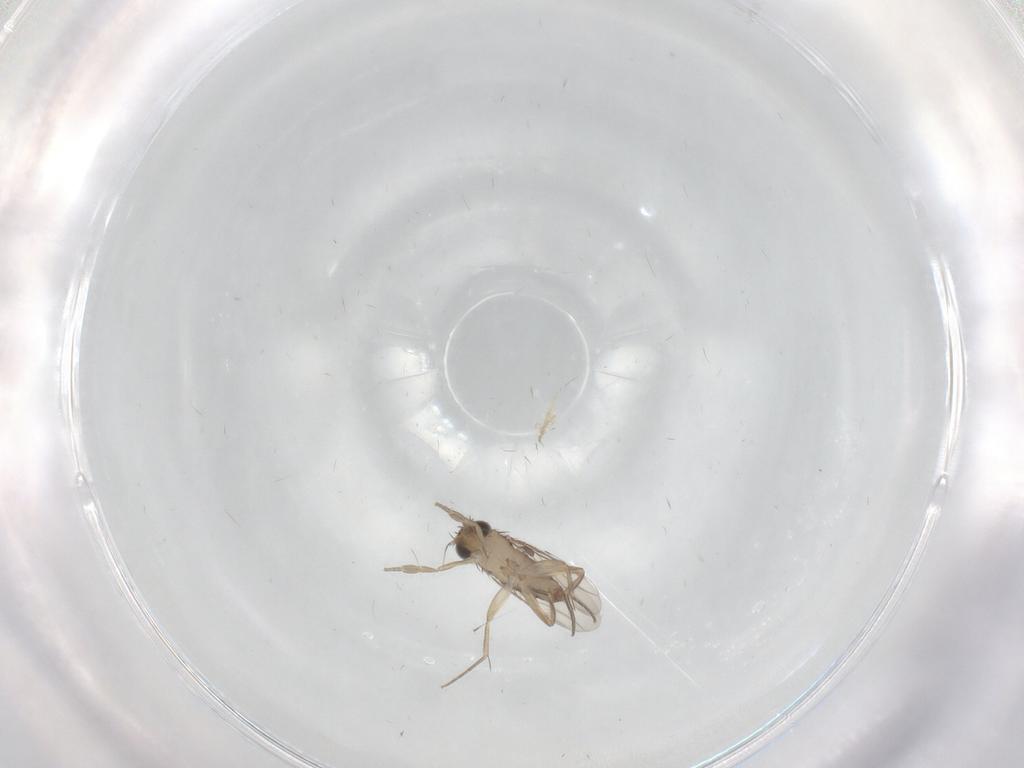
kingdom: Animalia
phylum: Arthropoda
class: Insecta
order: Diptera
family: Phoridae
